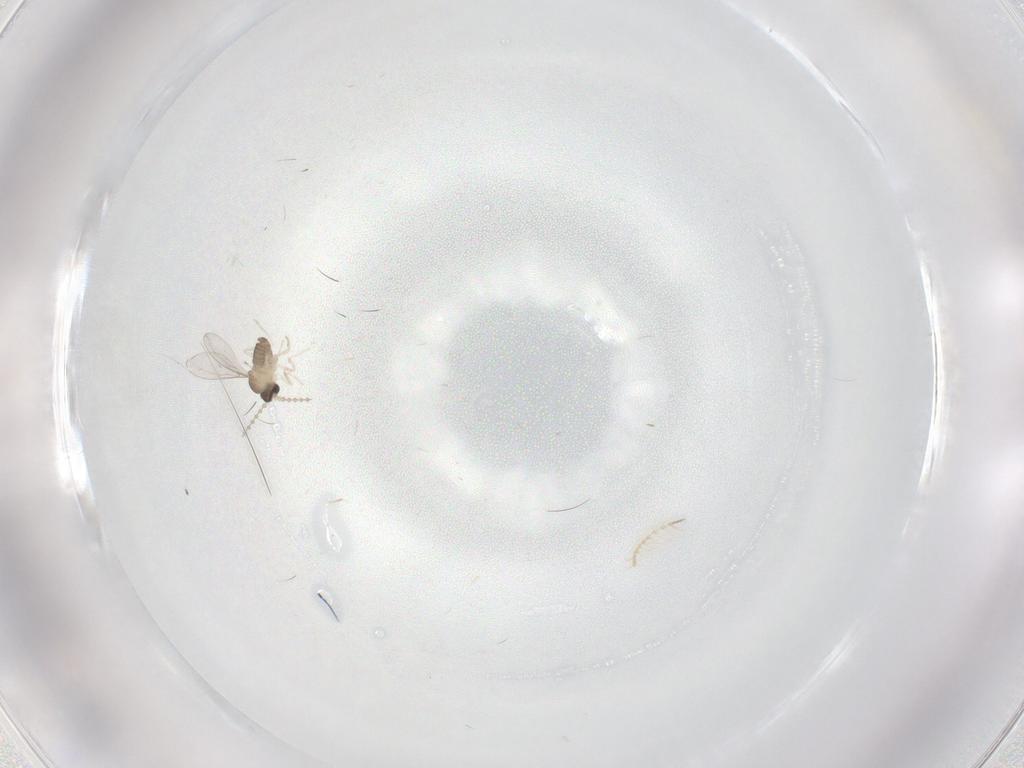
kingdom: Animalia
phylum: Arthropoda
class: Insecta
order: Diptera
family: Cecidomyiidae
